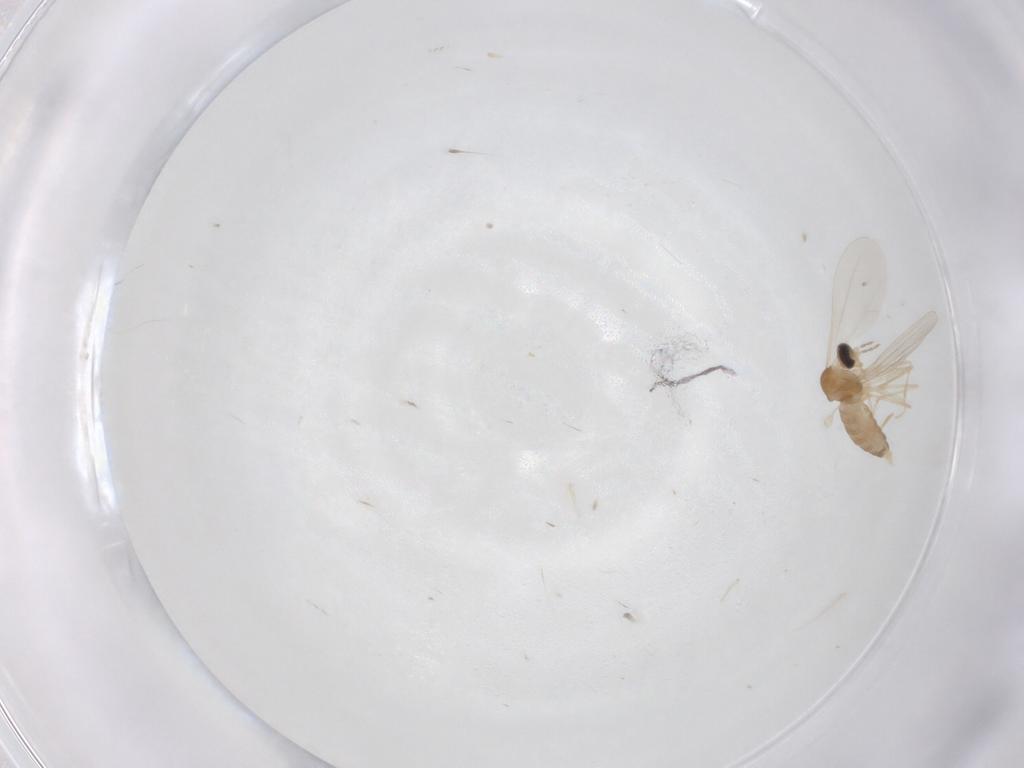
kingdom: Animalia
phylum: Arthropoda
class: Insecta
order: Diptera
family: Cecidomyiidae
